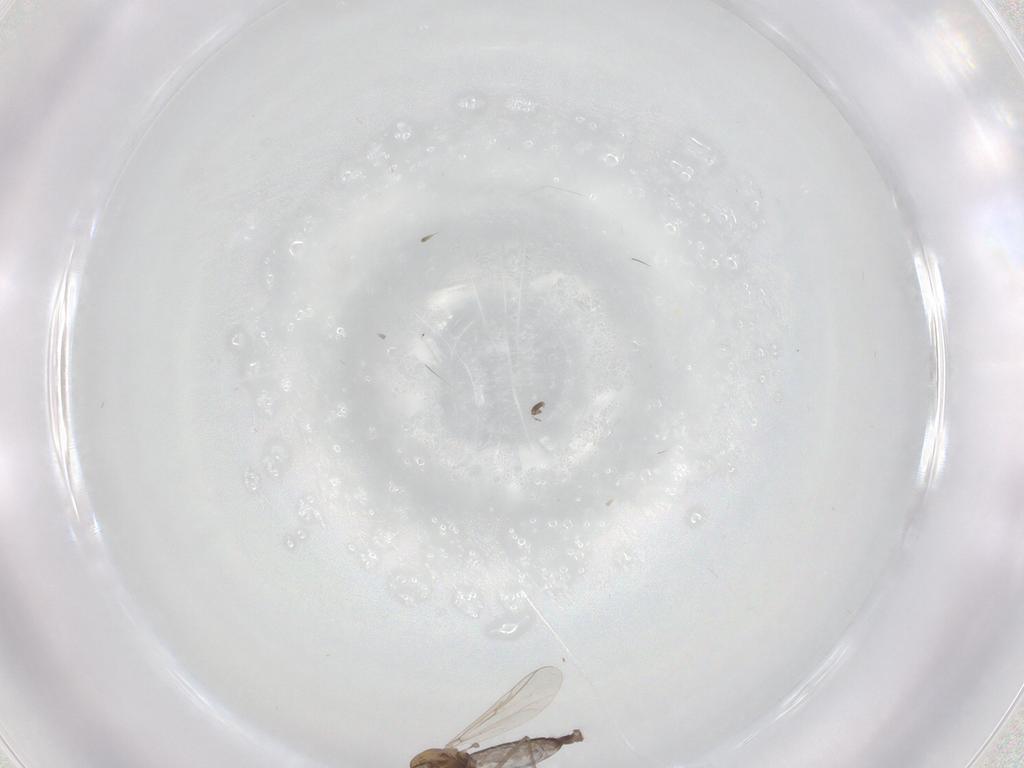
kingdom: Animalia
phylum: Arthropoda
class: Insecta
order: Diptera
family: Chironomidae
